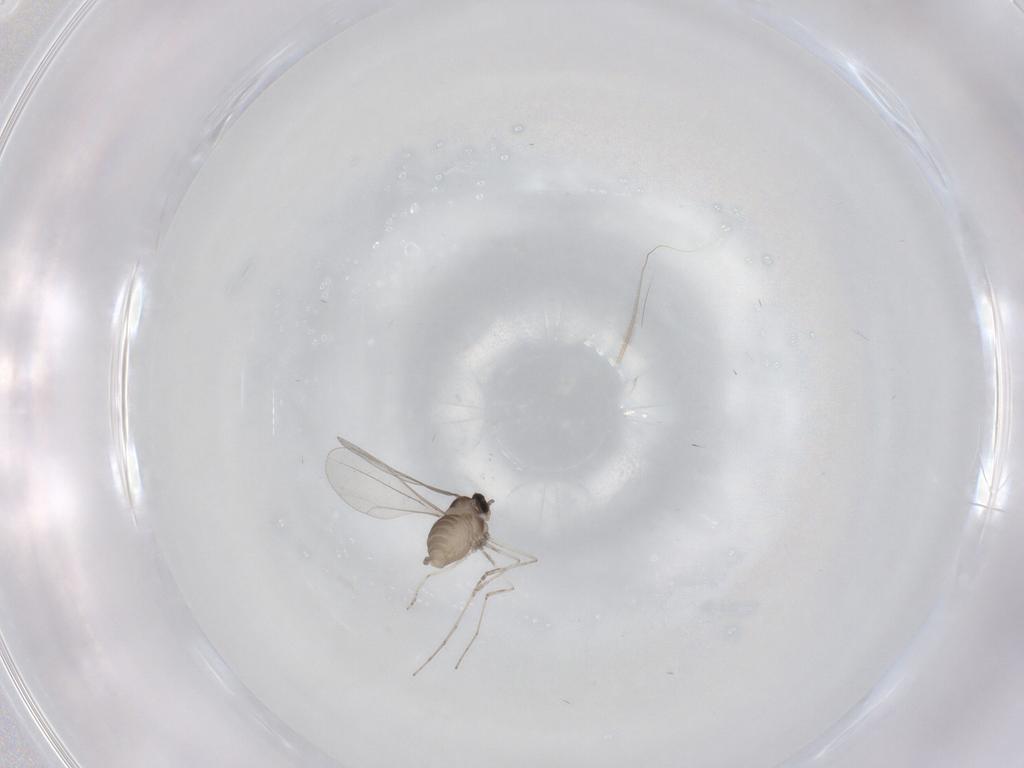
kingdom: Animalia
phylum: Arthropoda
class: Insecta
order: Diptera
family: Cecidomyiidae
